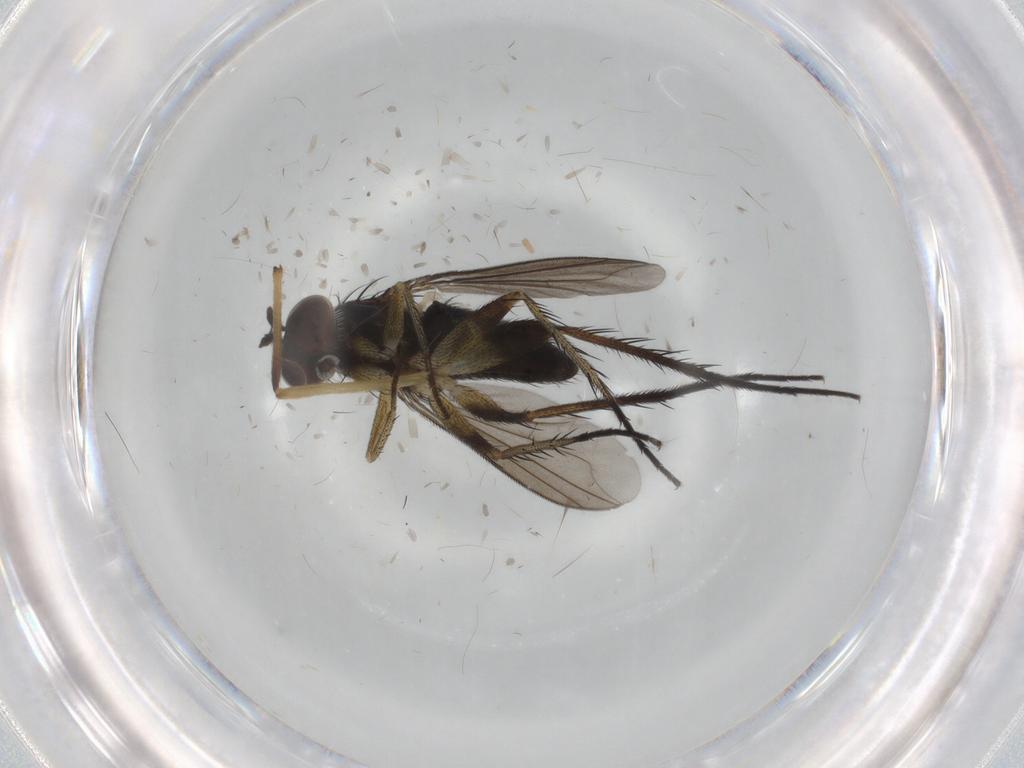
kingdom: Animalia
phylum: Arthropoda
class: Insecta
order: Diptera
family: Dolichopodidae
